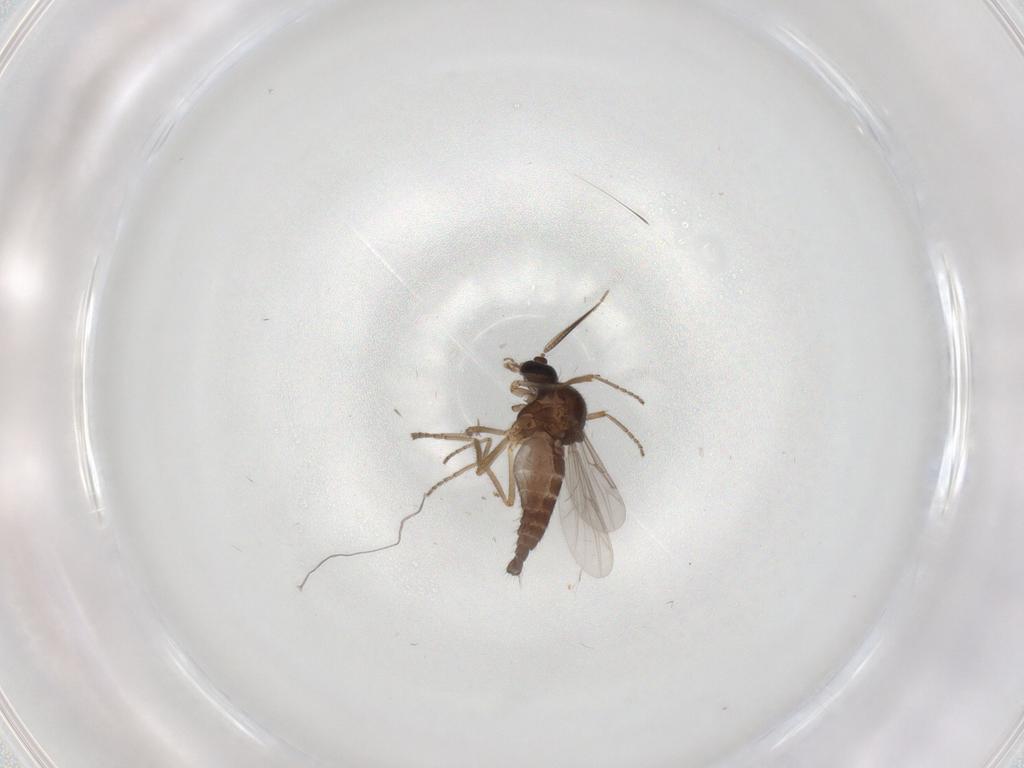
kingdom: Animalia
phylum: Arthropoda
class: Insecta
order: Diptera
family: Ceratopogonidae
